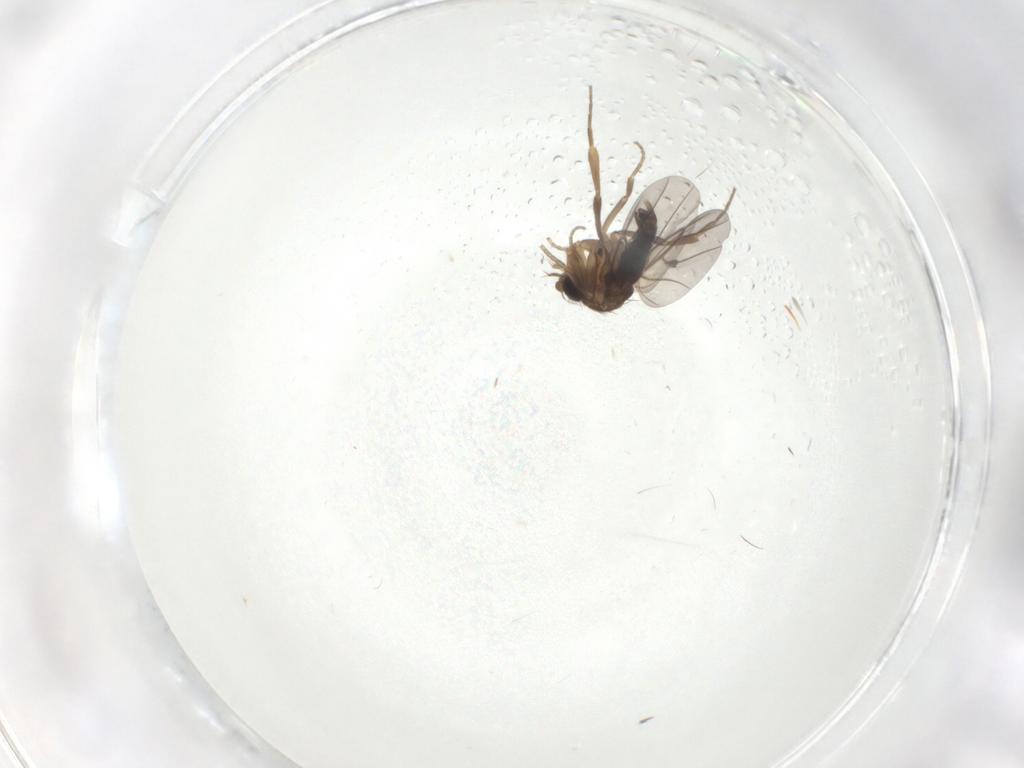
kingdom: Animalia
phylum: Arthropoda
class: Insecta
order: Diptera
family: Phoridae
